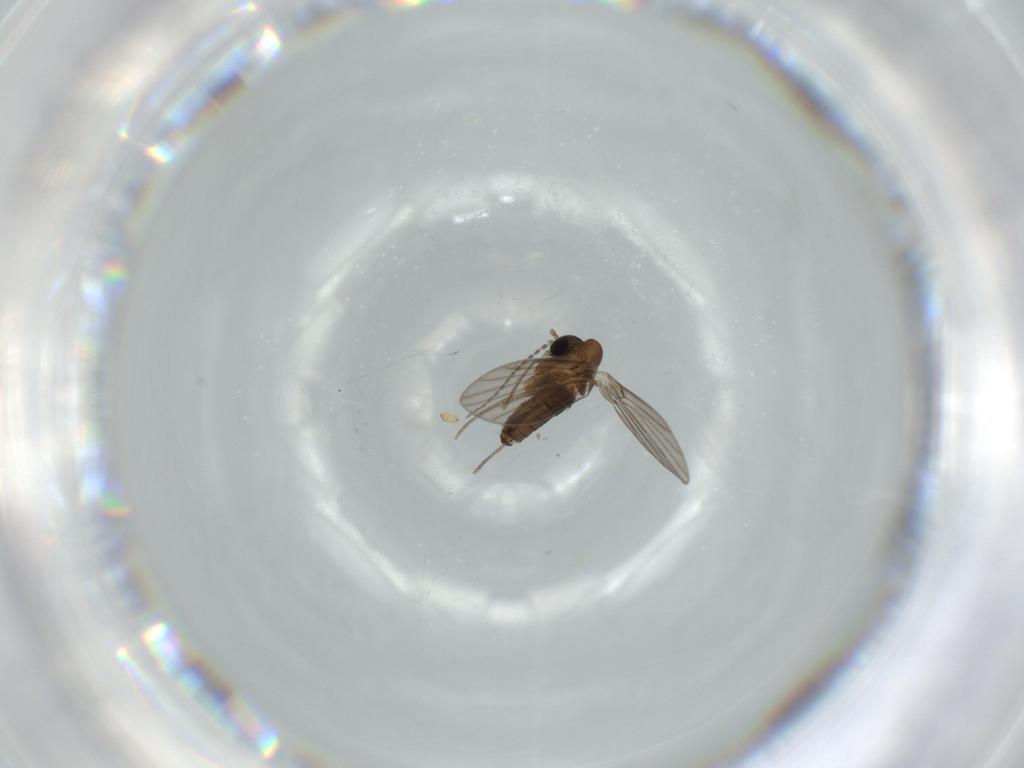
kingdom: Animalia
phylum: Arthropoda
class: Insecta
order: Diptera
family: Psychodidae
